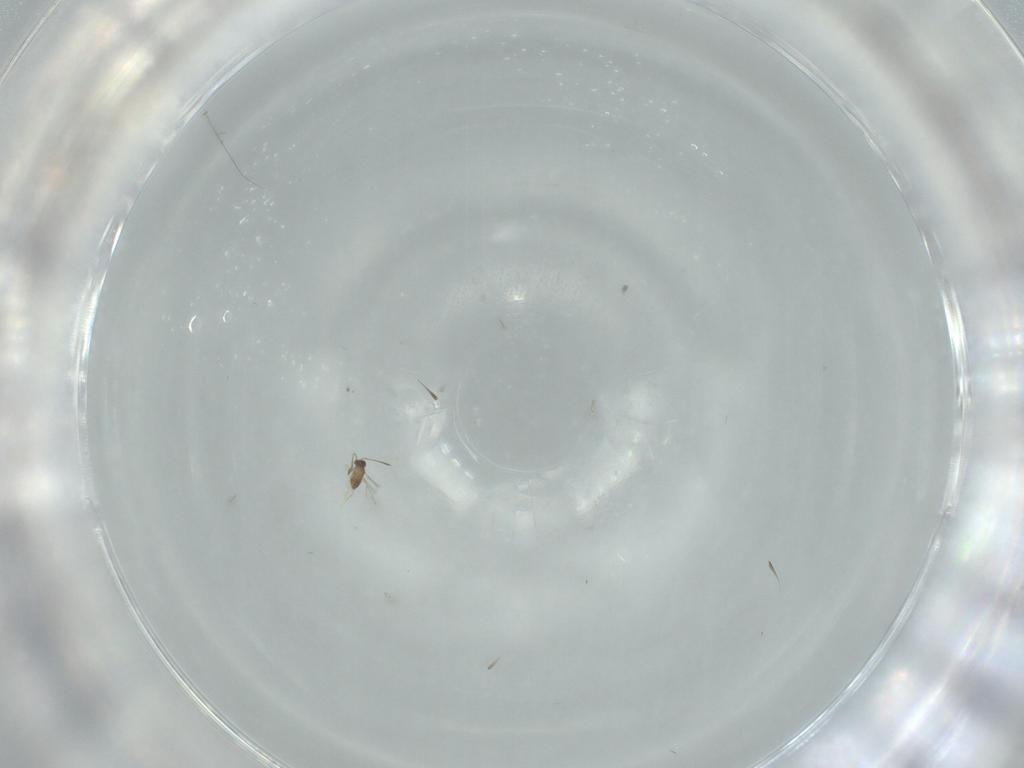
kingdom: Animalia
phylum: Arthropoda
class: Insecta
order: Hymenoptera
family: Mymaridae
